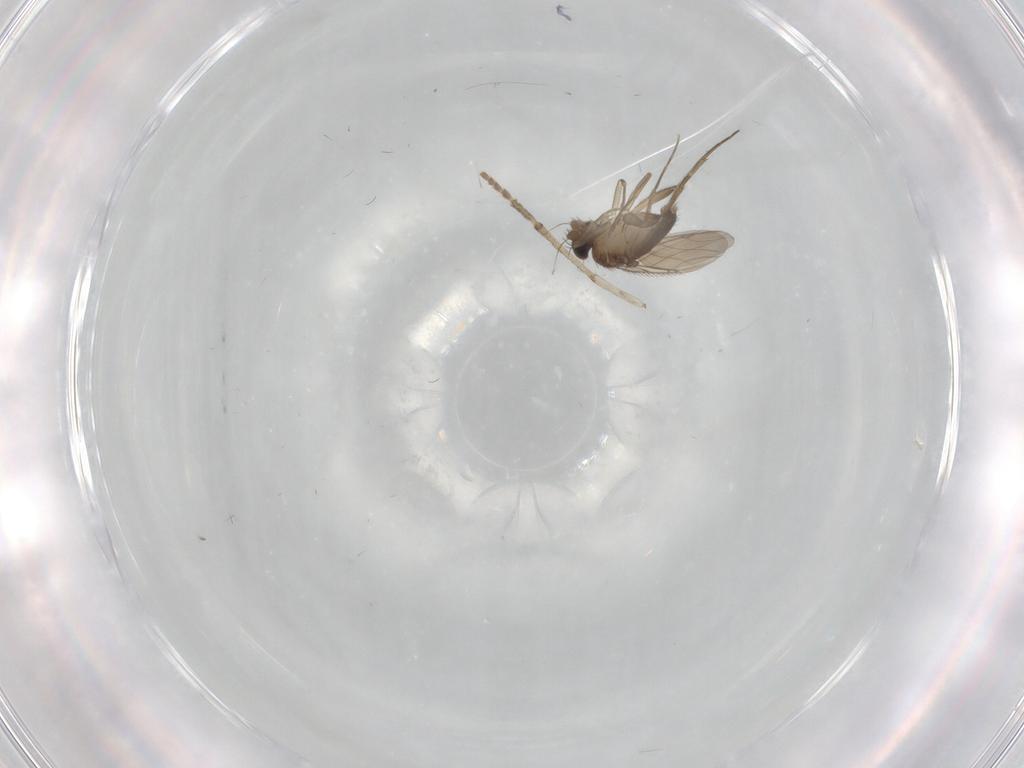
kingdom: Animalia
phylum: Arthropoda
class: Insecta
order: Diptera
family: Phoridae
